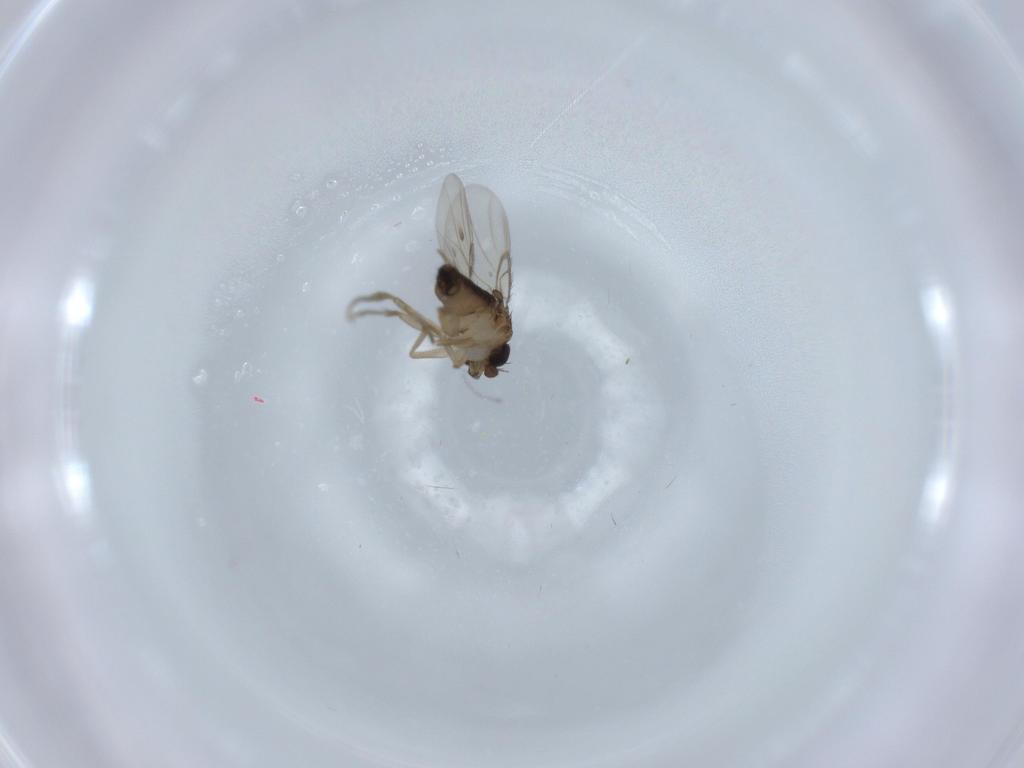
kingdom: Animalia
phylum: Arthropoda
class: Insecta
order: Diptera
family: Phoridae
